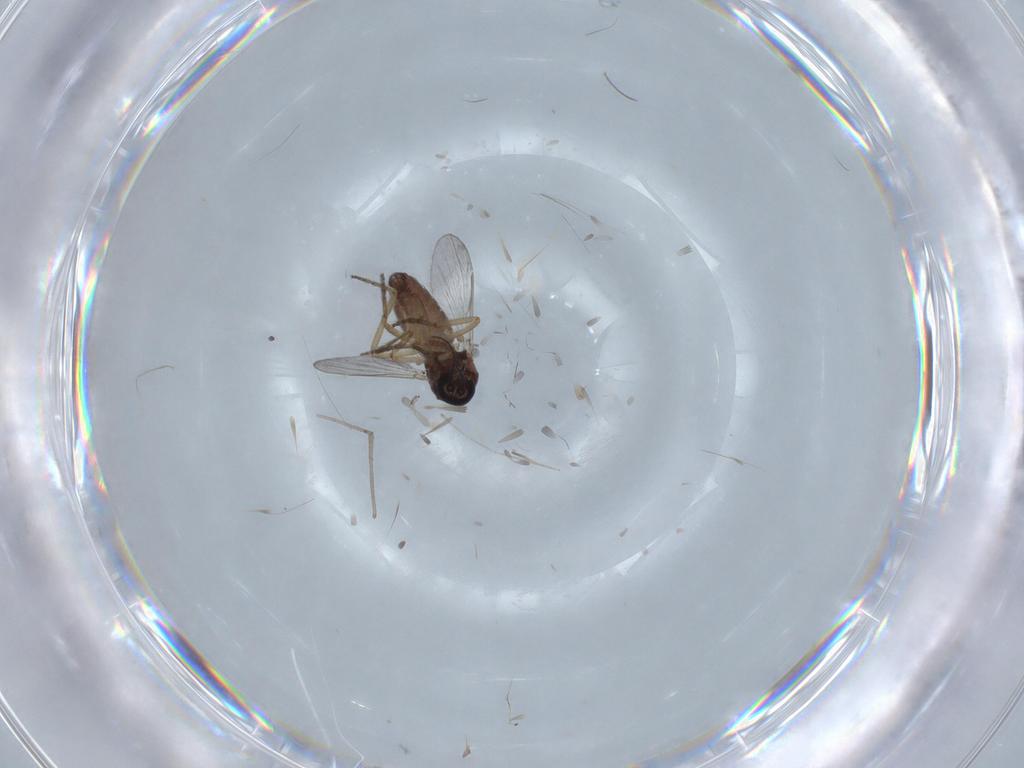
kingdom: Animalia
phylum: Arthropoda
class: Insecta
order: Diptera
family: Ceratopogonidae
